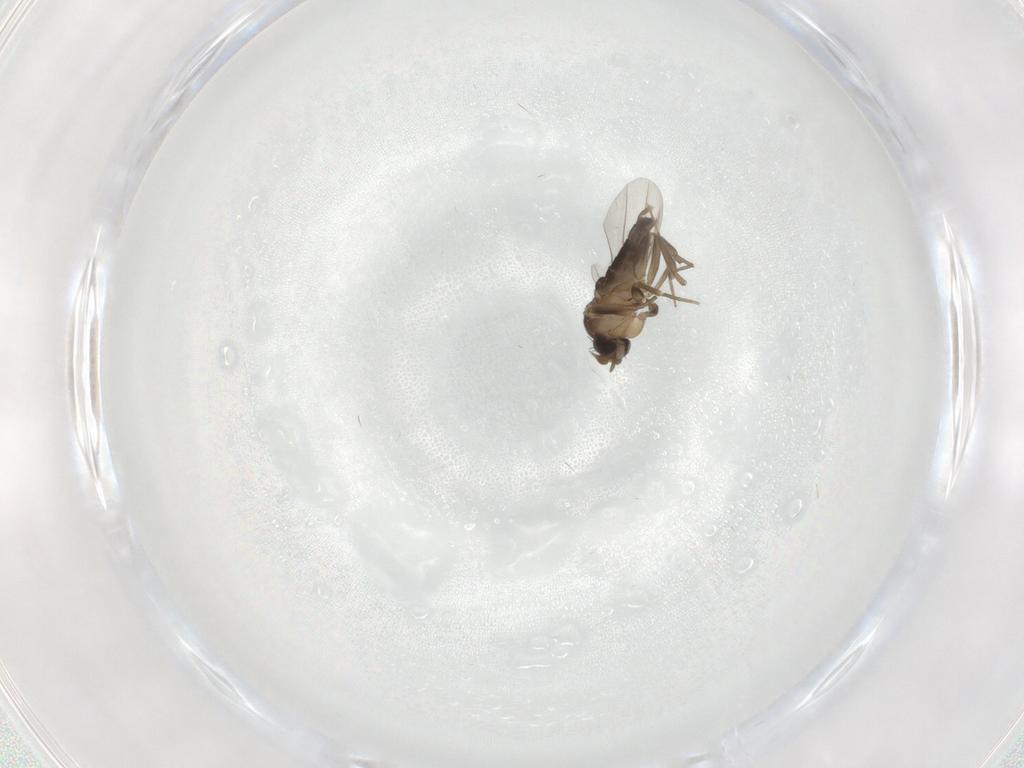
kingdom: Animalia
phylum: Arthropoda
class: Insecta
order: Diptera
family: Phoridae
